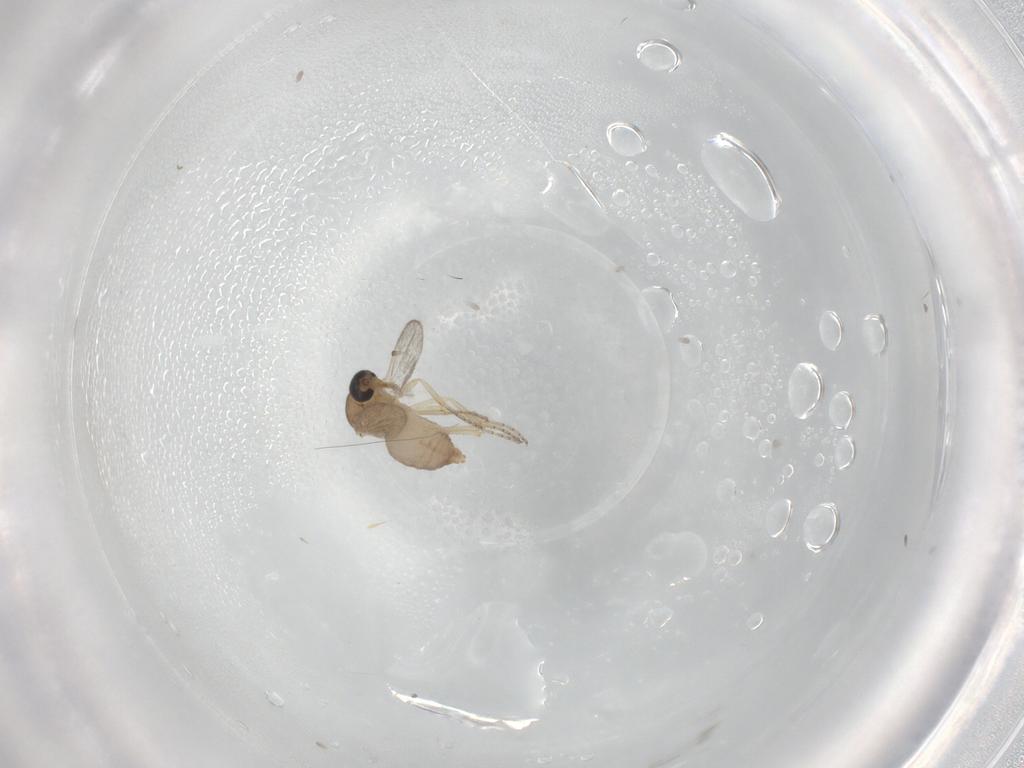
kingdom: Animalia
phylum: Arthropoda
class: Insecta
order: Diptera
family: Ceratopogonidae
